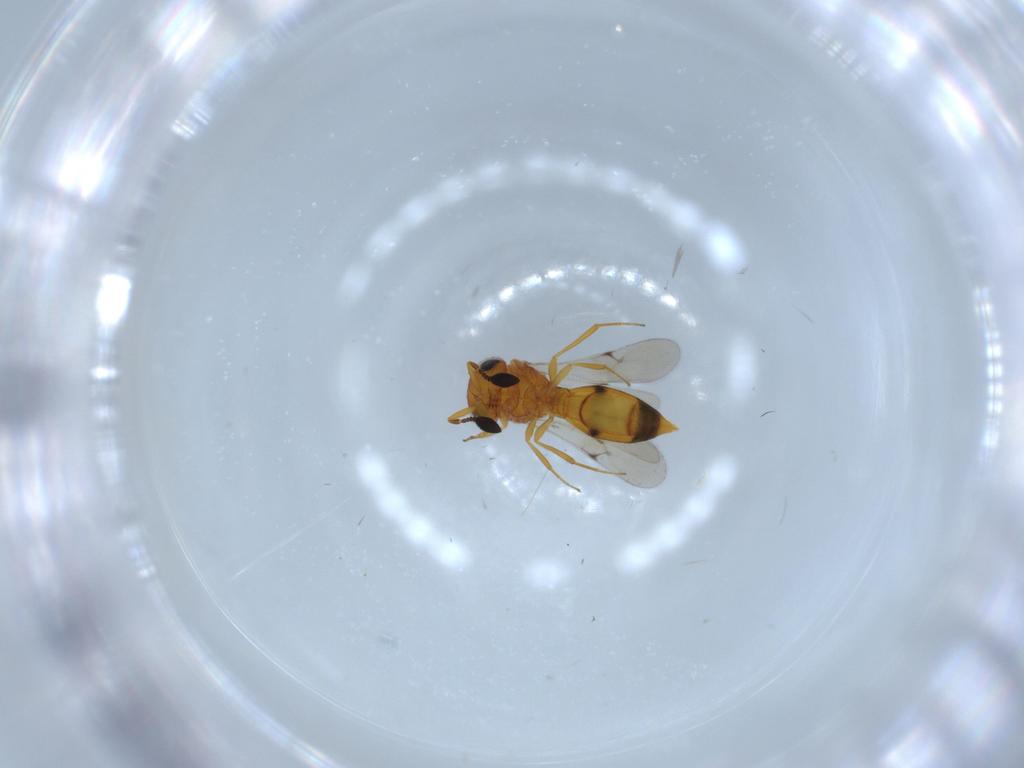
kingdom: Animalia
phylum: Arthropoda
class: Insecta
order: Hymenoptera
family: Scelionidae
